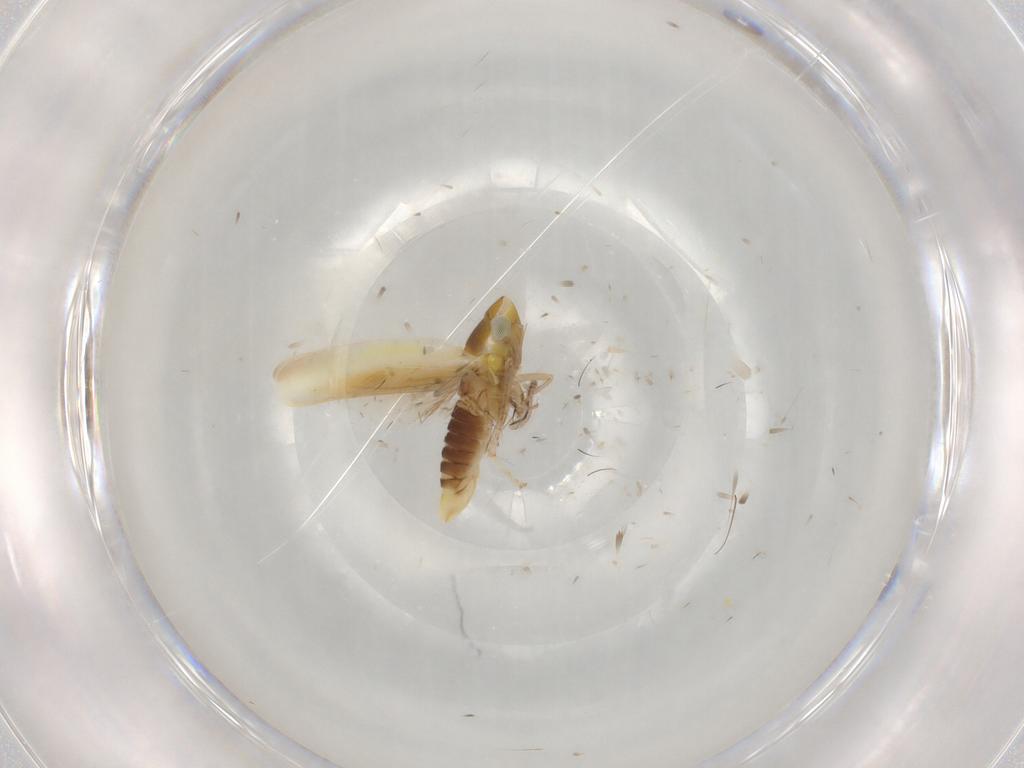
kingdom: Animalia
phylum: Arthropoda
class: Insecta
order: Hemiptera
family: Cicadellidae
